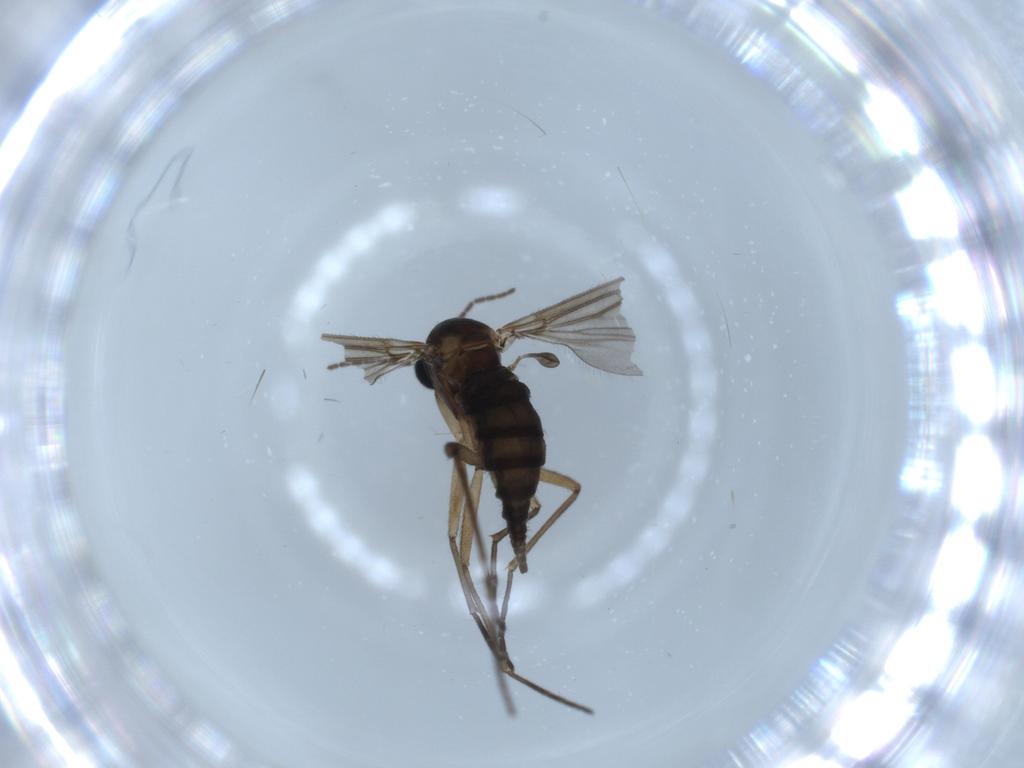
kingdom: Animalia
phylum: Arthropoda
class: Insecta
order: Diptera
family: Sciaridae
